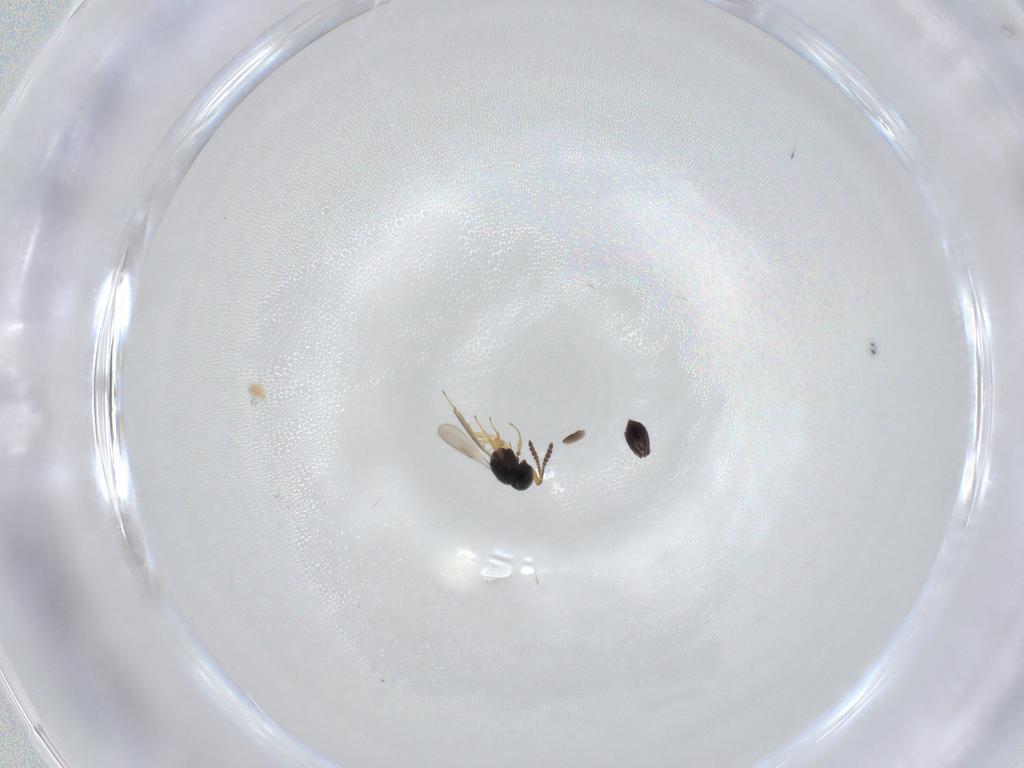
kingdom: Animalia
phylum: Arthropoda
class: Insecta
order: Hymenoptera
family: Scelionidae
